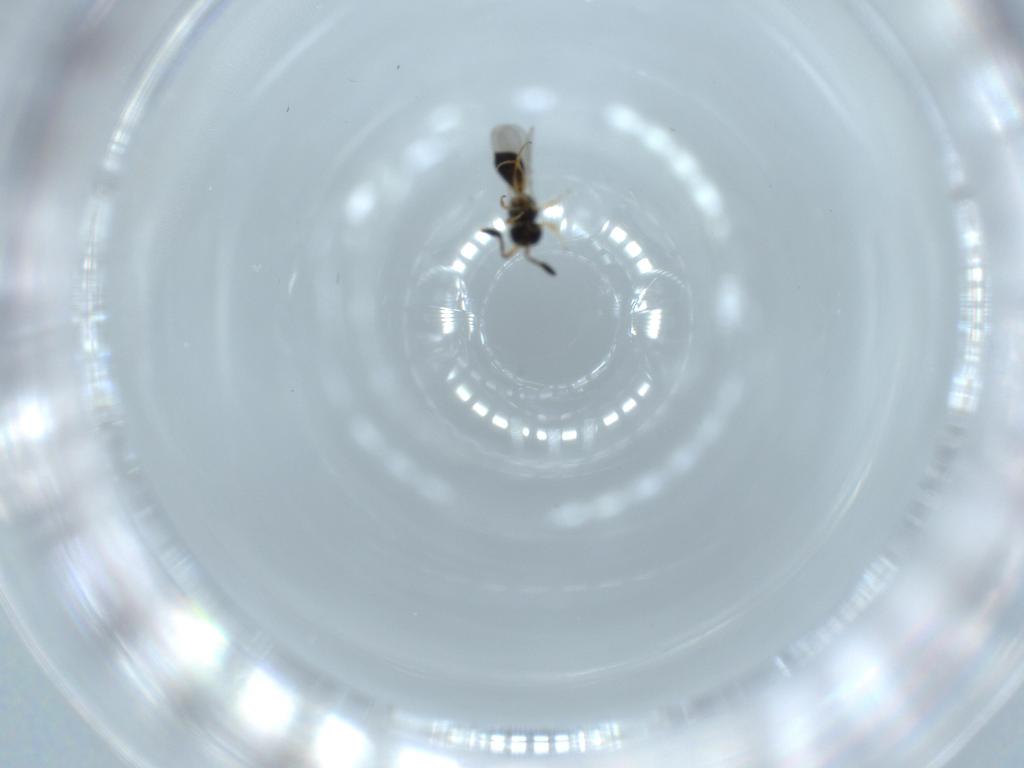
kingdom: Animalia
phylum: Arthropoda
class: Insecta
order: Hymenoptera
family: Scelionidae
